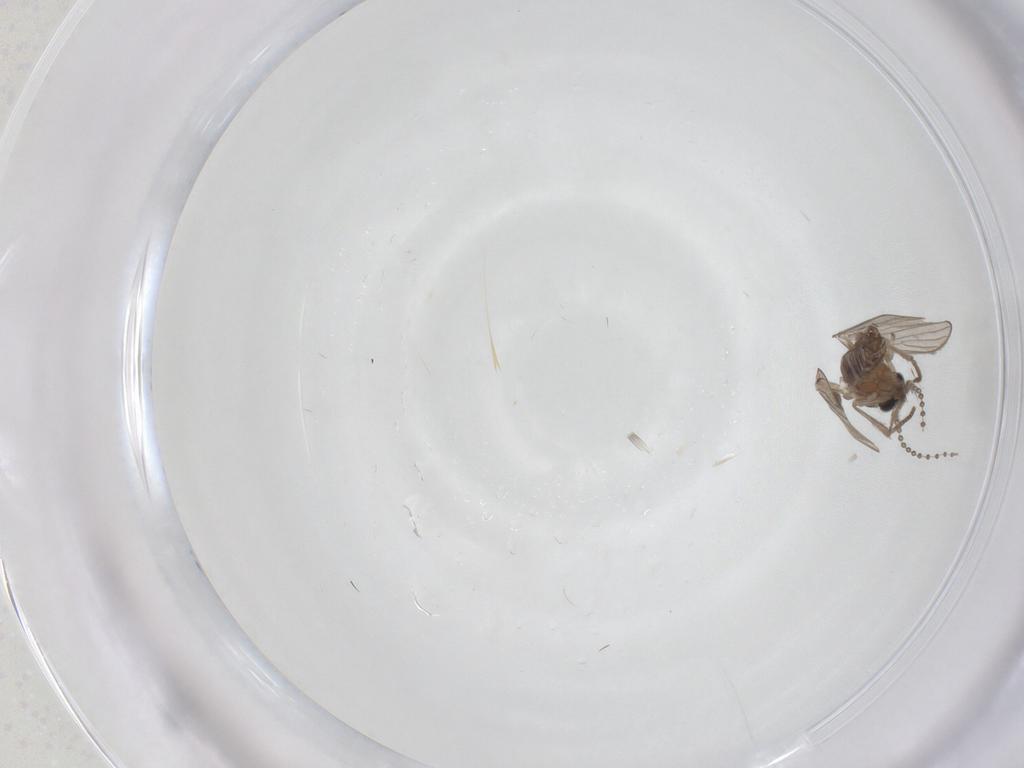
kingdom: Animalia
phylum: Arthropoda
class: Insecta
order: Diptera
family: Psychodidae
